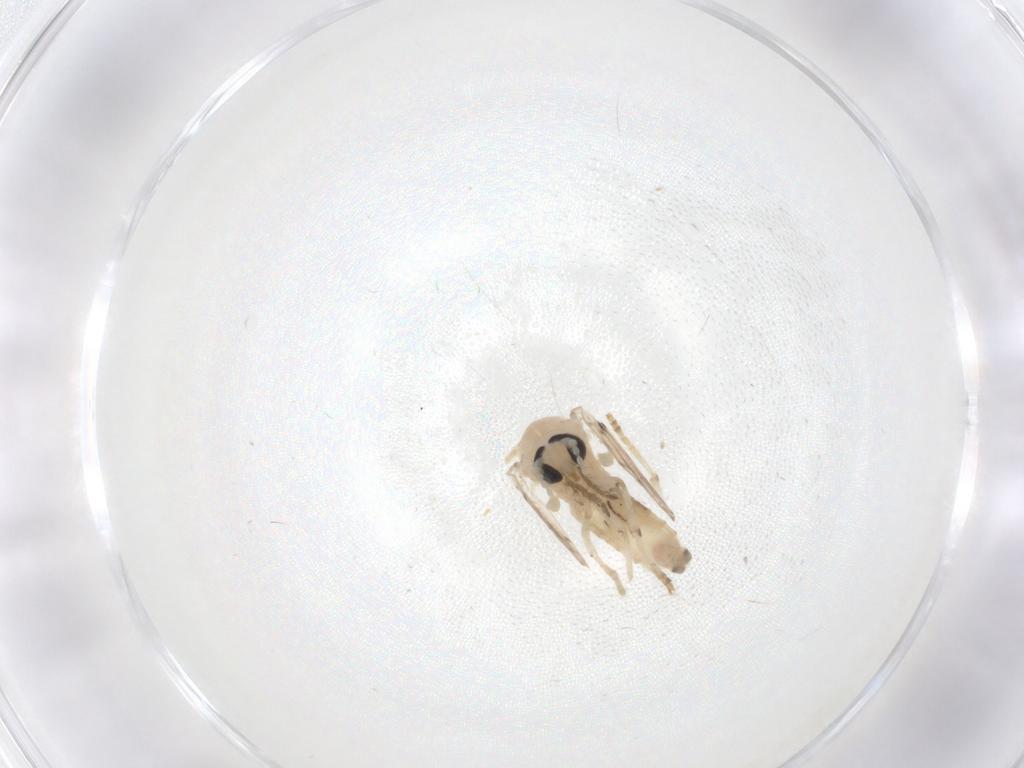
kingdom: Animalia
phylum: Arthropoda
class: Insecta
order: Diptera
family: Psychodidae
